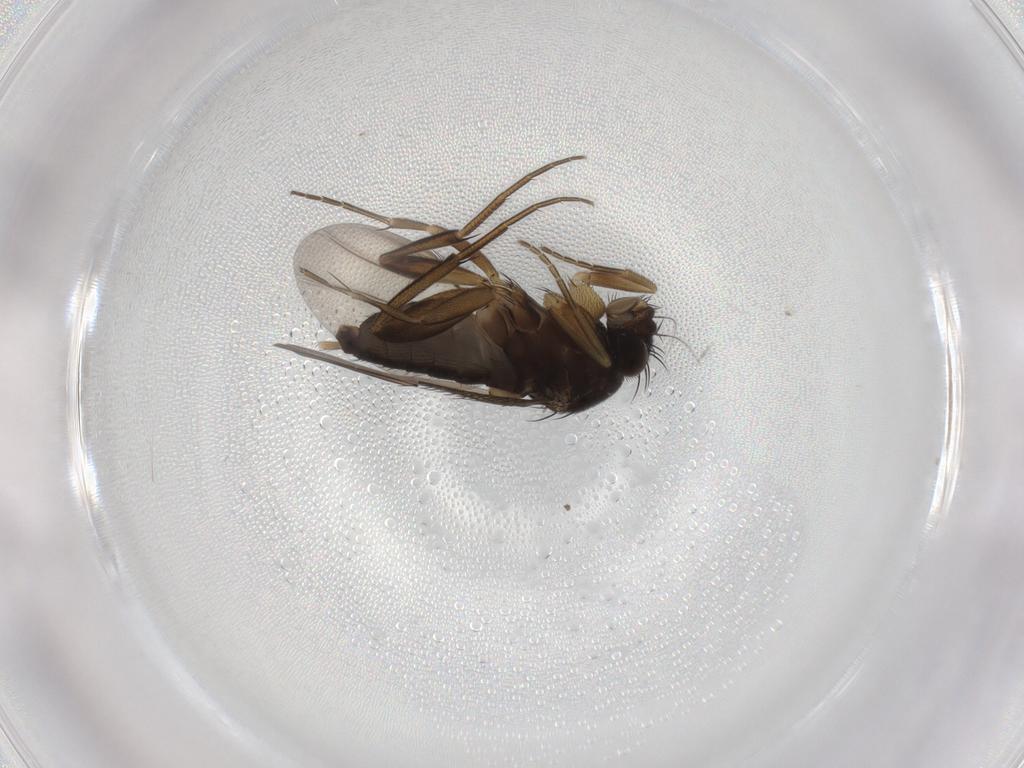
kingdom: Animalia
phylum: Arthropoda
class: Insecta
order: Diptera
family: Phoridae
